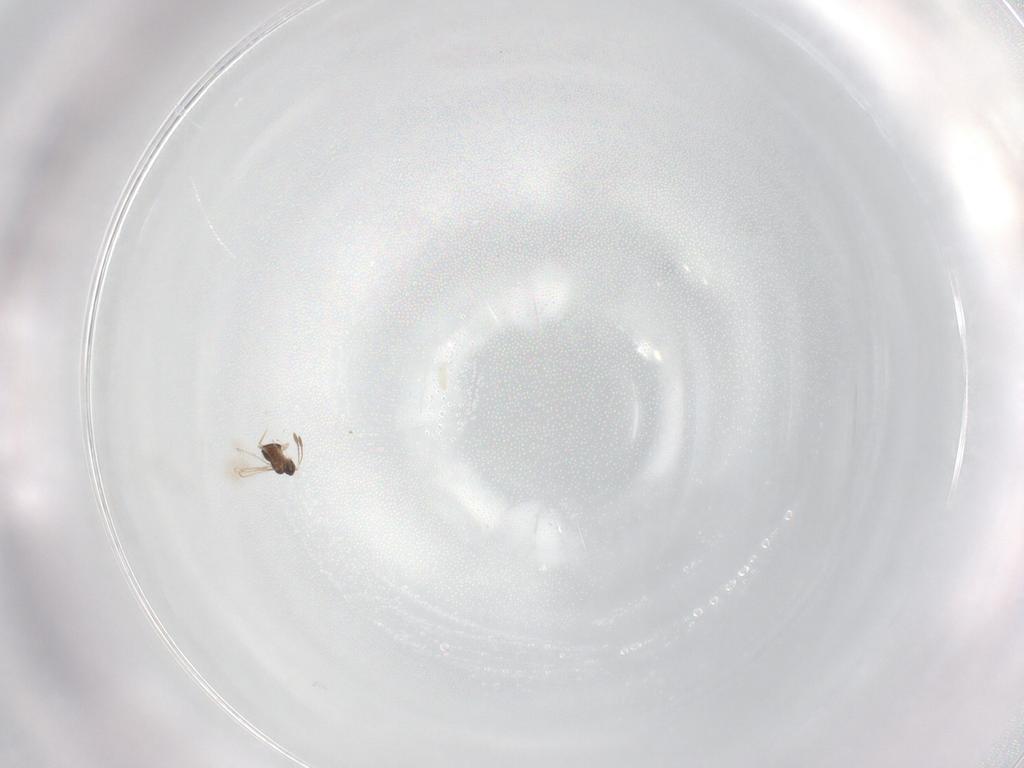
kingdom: Animalia
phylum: Arthropoda
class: Insecta
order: Hymenoptera
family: Mymaridae
